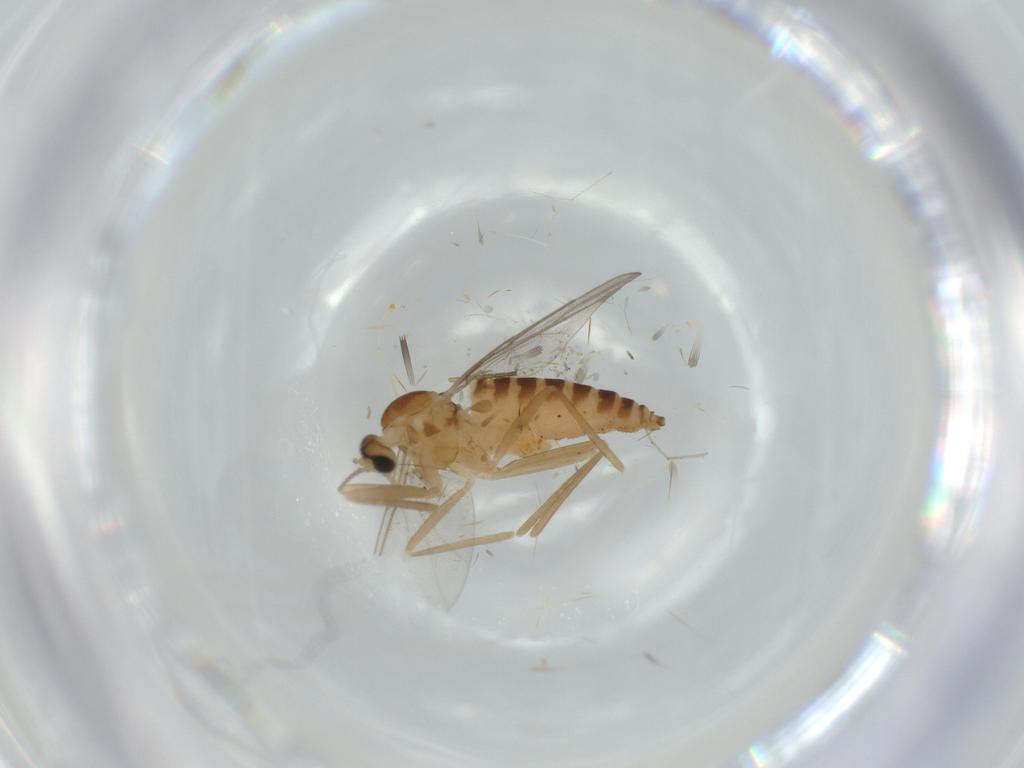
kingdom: Animalia
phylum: Arthropoda
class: Insecta
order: Diptera
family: Cecidomyiidae
